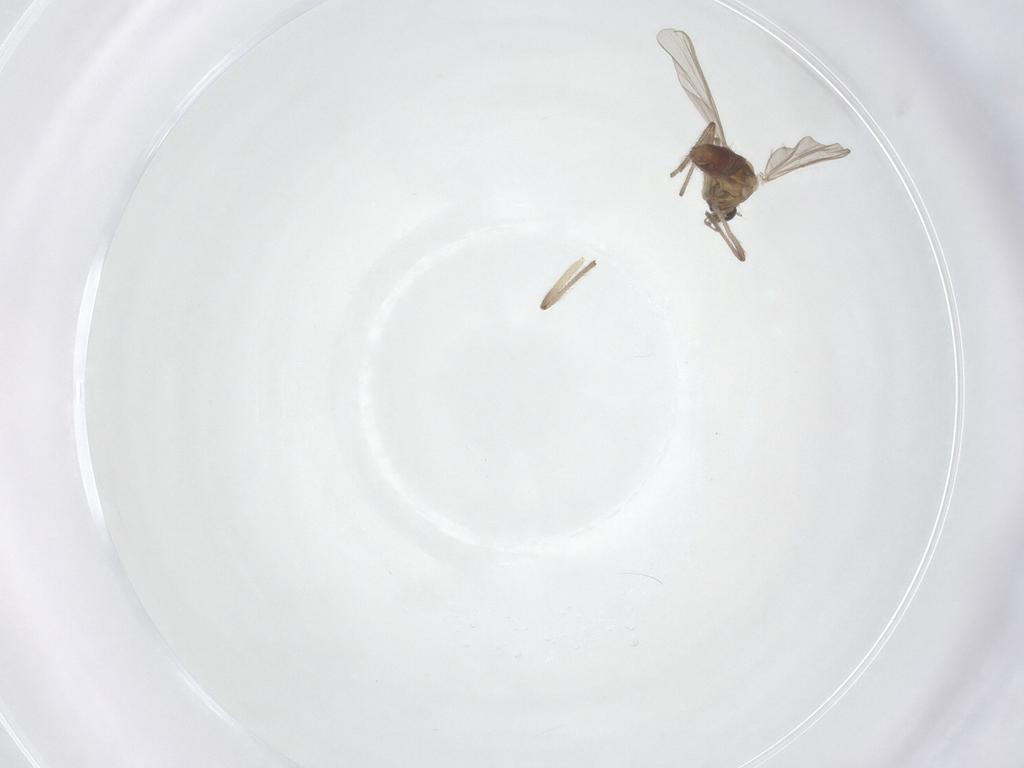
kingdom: Animalia
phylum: Arthropoda
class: Insecta
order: Diptera
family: Chironomidae
